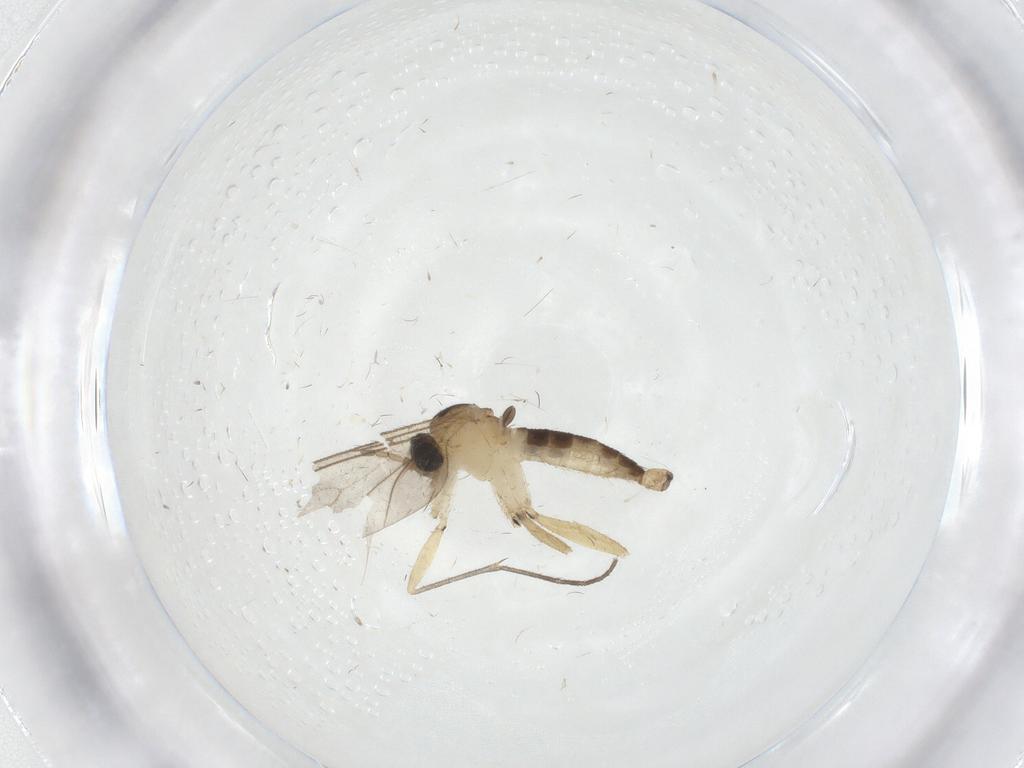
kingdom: Animalia
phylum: Arthropoda
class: Insecta
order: Diptera
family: Sciaridae
